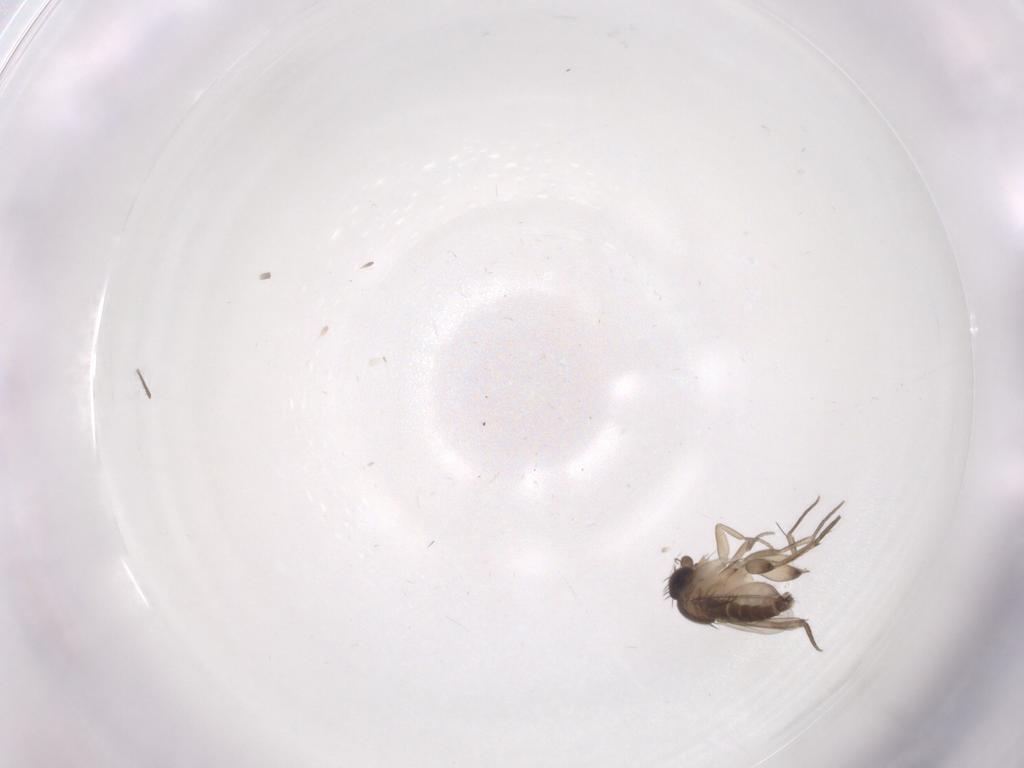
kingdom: Animalia
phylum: Arthropoda
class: Insecta
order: Diptera
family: Phoridae
